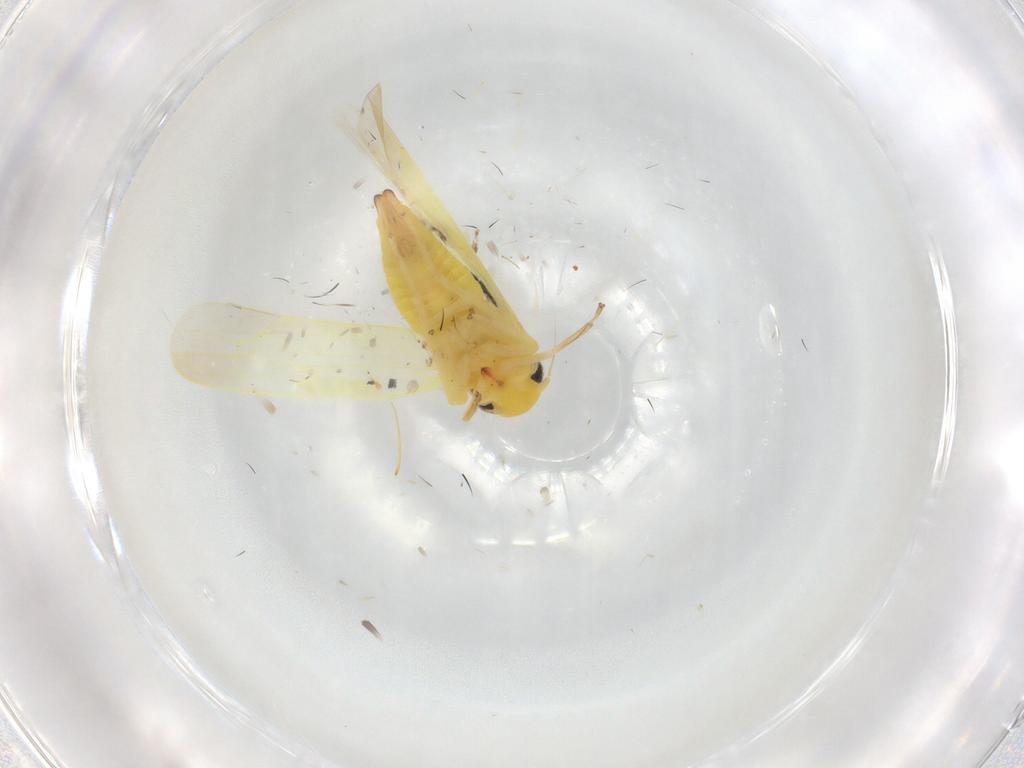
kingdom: Animalia
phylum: Arthropoda
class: Insecta
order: Hemiptera
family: Cicadellidae
